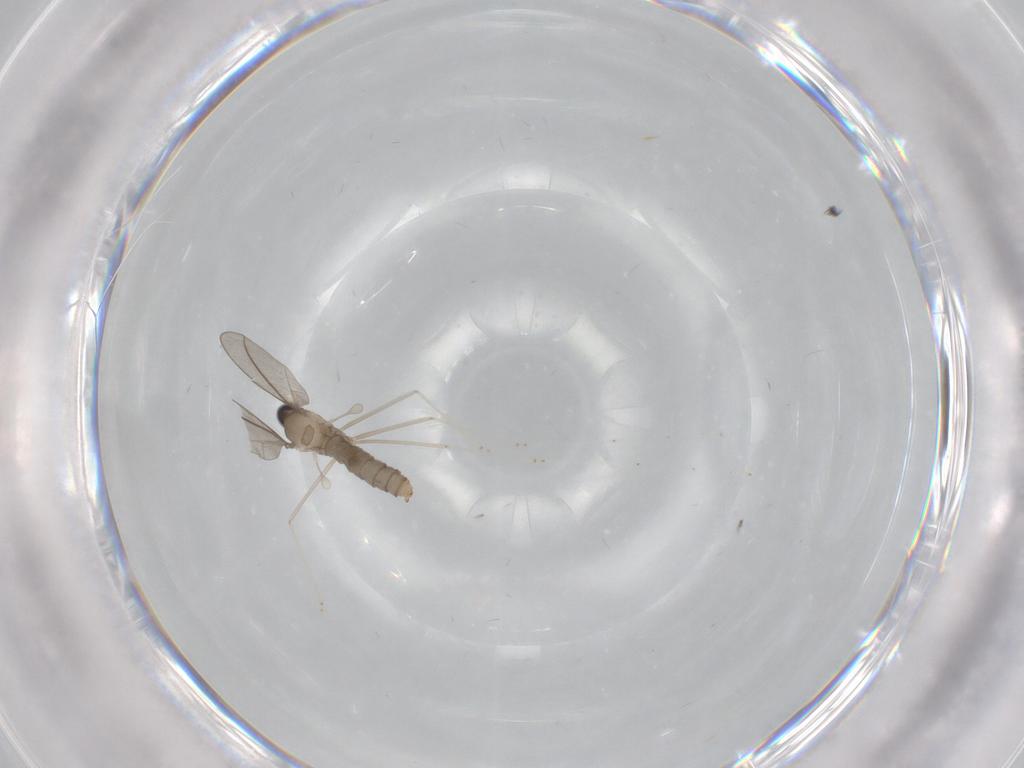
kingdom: Animalia
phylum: Arthropoda
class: Insecta
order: Diptera
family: Cecidomyiidae
